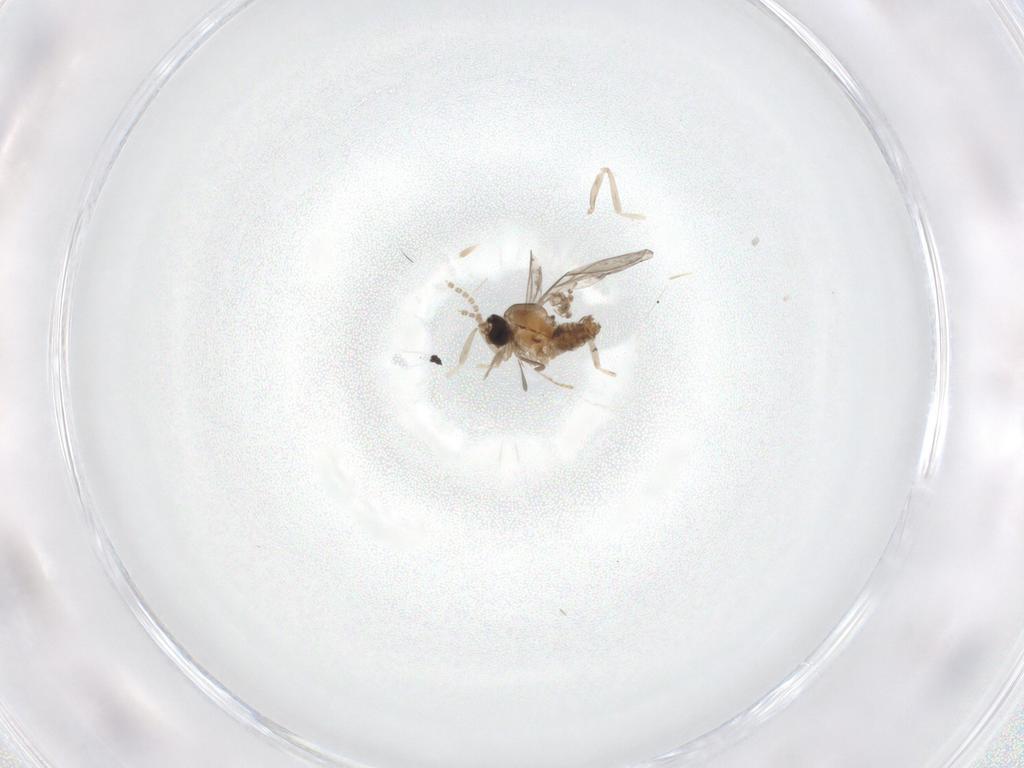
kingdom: Animalia
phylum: Arthropoda
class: Insecta
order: Diptera
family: Cecidomyiidae
